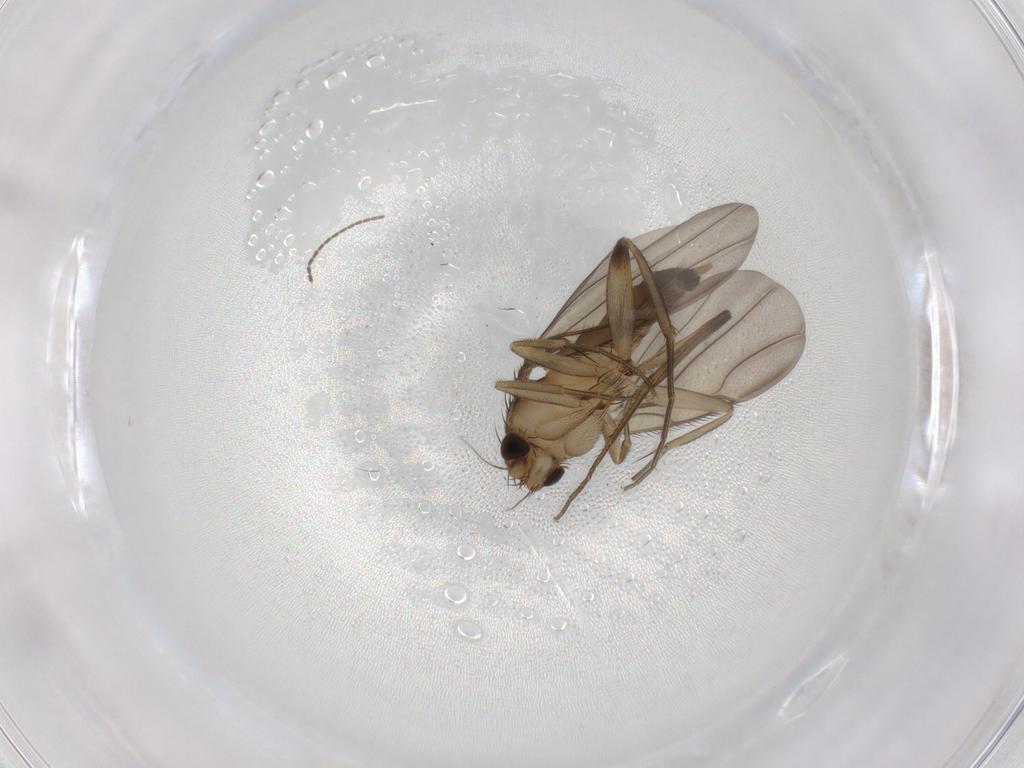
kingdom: Animalia
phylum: Arthropoda
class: Insecta
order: Diptera
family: Phoridae
